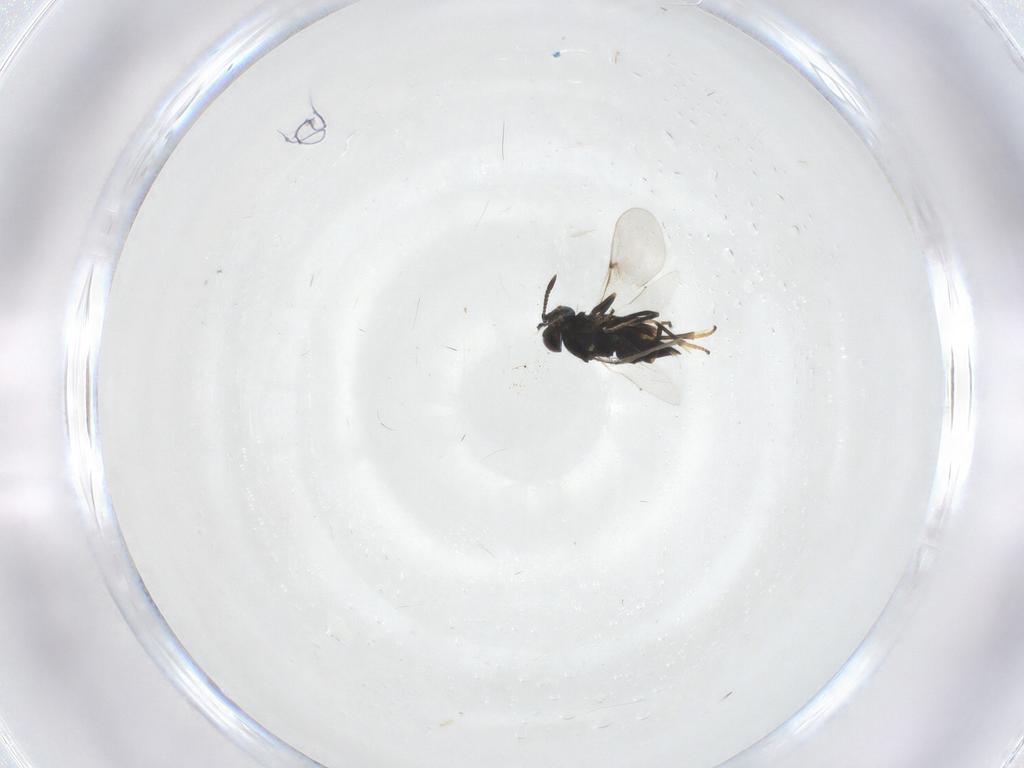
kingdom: Animalia
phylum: Arthropoda
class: Insecta
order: Hymenoptera
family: Encyrtidae
